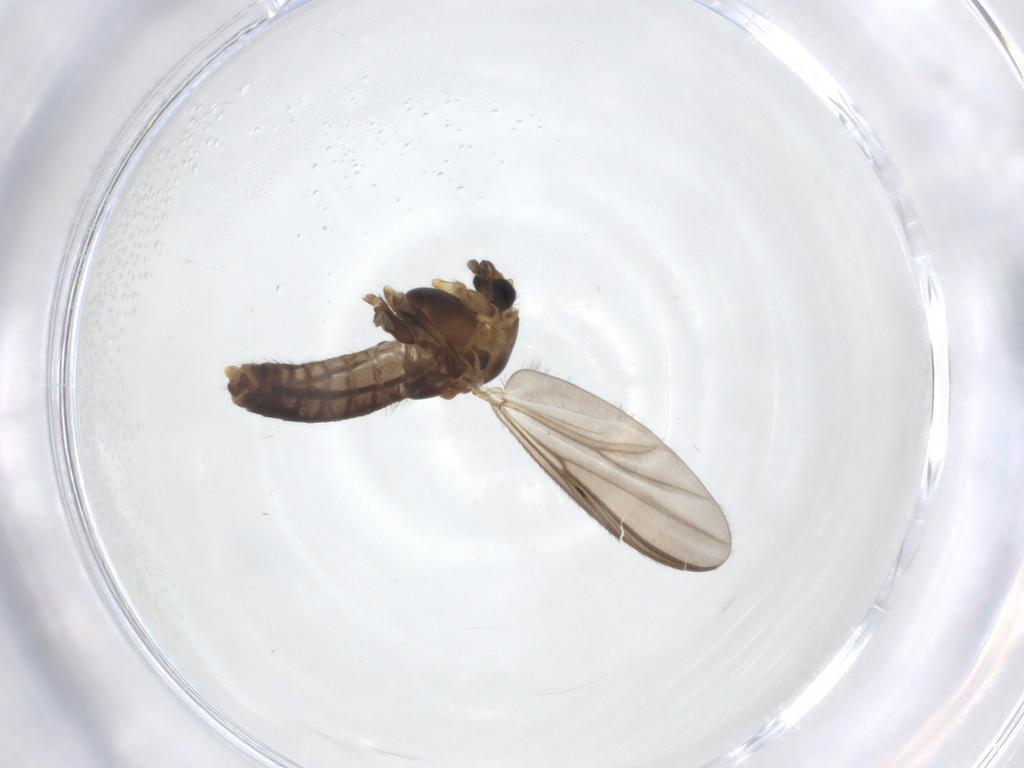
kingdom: Animalia
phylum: Arthropoda
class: Insecta
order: Diptera
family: Chironomidae
